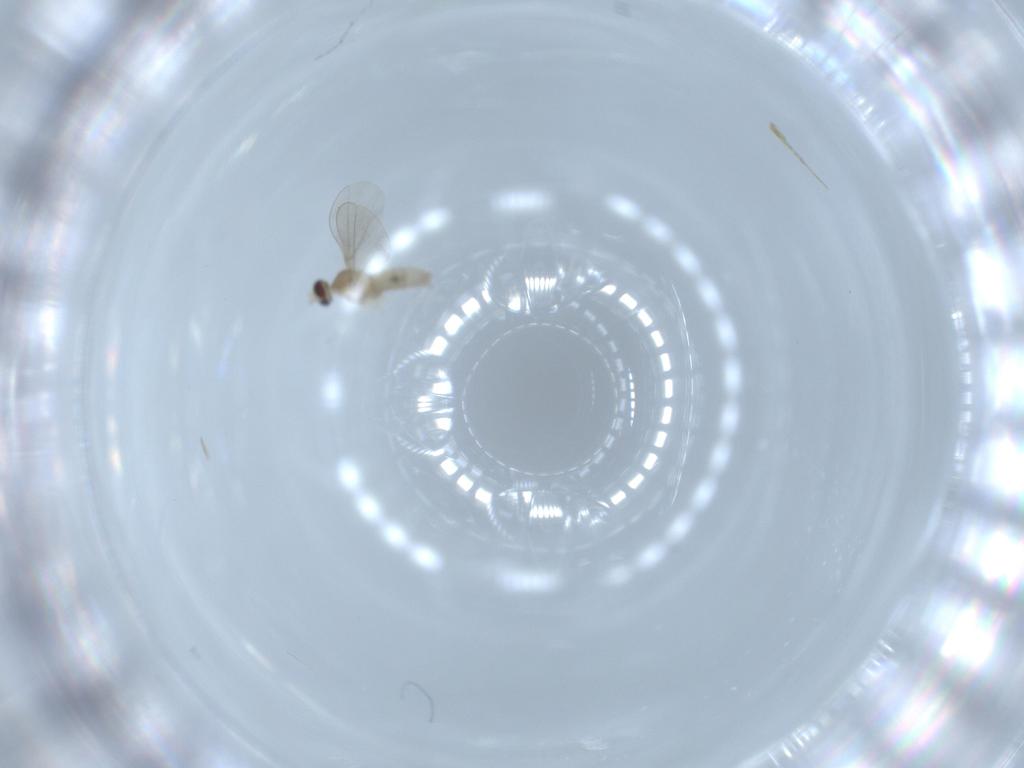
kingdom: Animalia
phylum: Arthropoda
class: Insecta
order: Diptera
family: Cecidomyiidae
